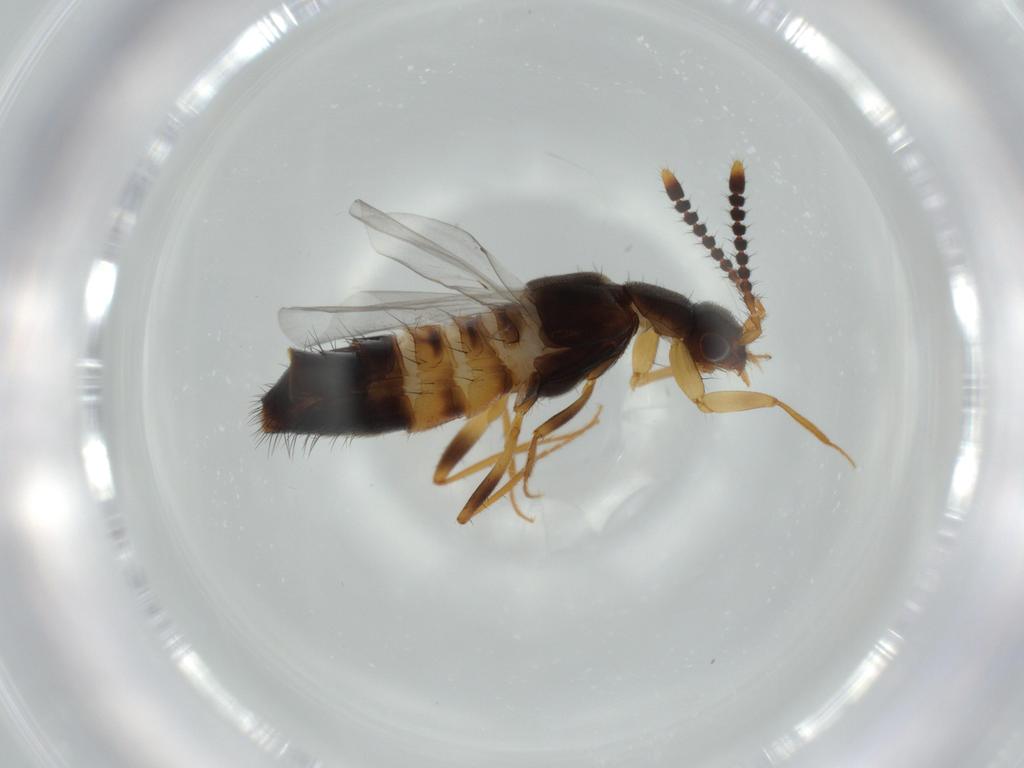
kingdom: Animalia
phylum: Arthropoda
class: Insecta
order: Coleoptera
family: Staphylinidae
